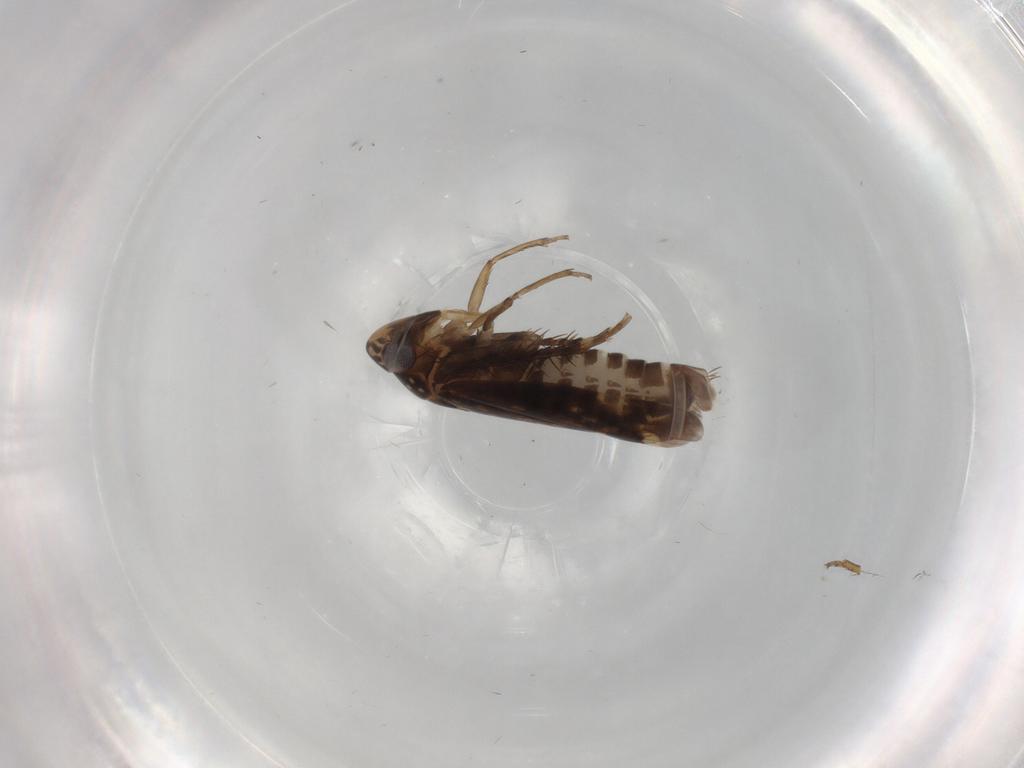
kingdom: Animalia
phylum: Arthropoda
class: Insecta
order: Hemiptera
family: Cicadellidae
